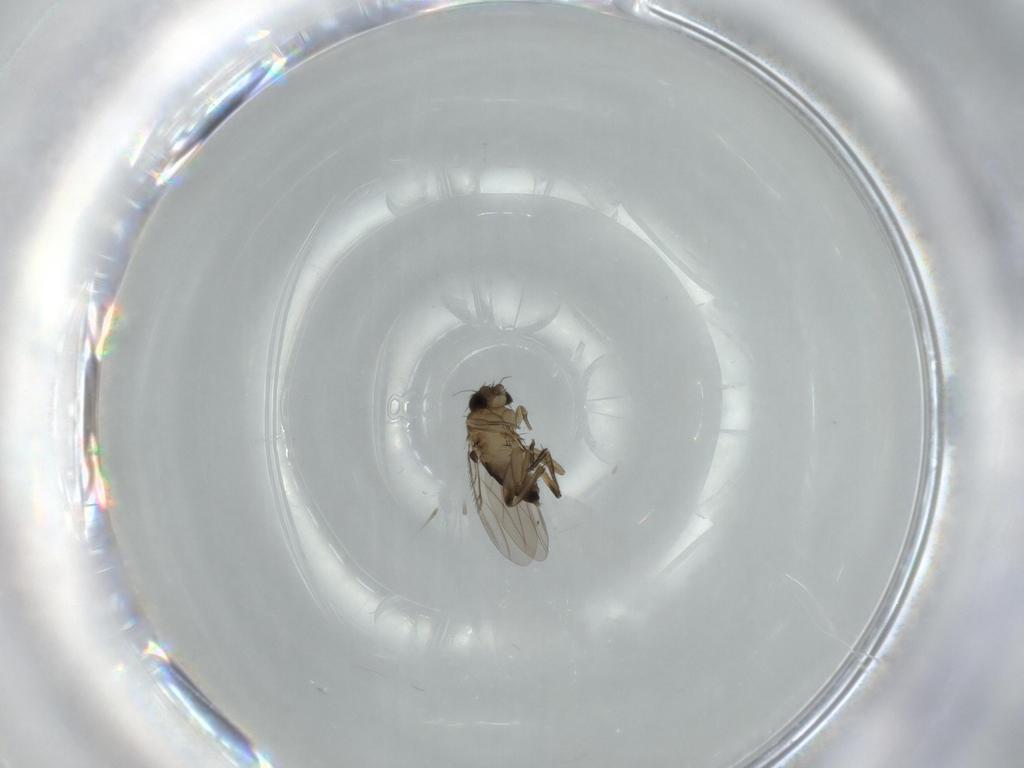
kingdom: Animalia
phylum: Arthropoda
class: Insecta
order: Diptera
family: Phoridae
